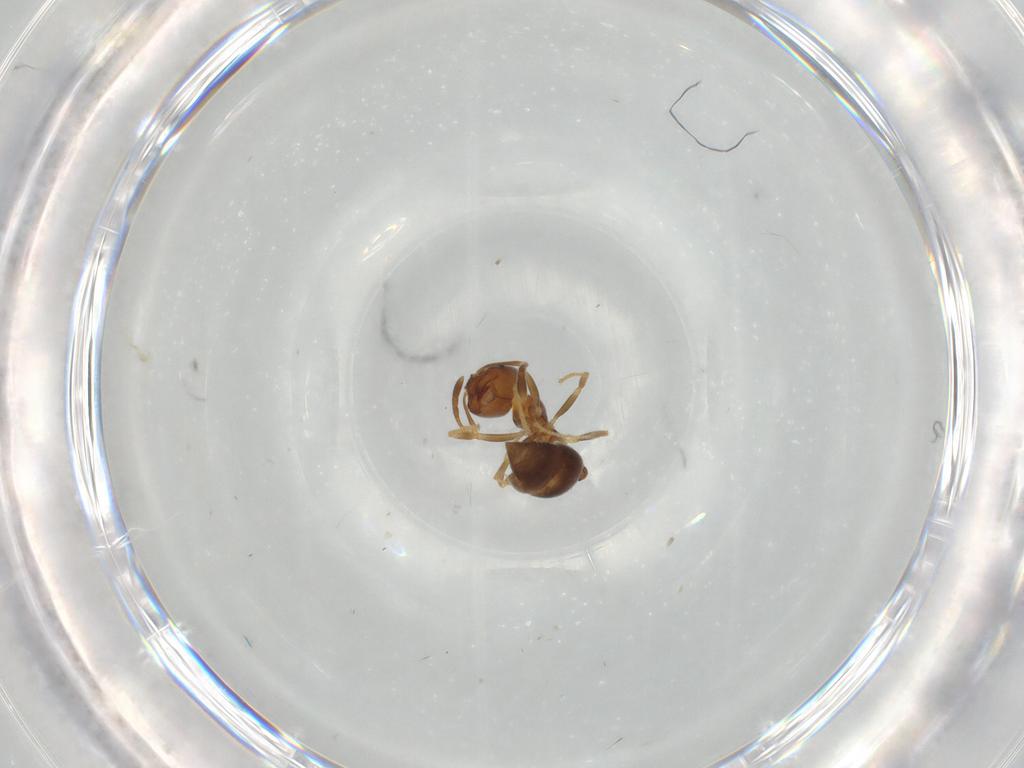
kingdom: Animalia
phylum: Arthropoda
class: Insecta
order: Hymenoptera
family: Formicidae
